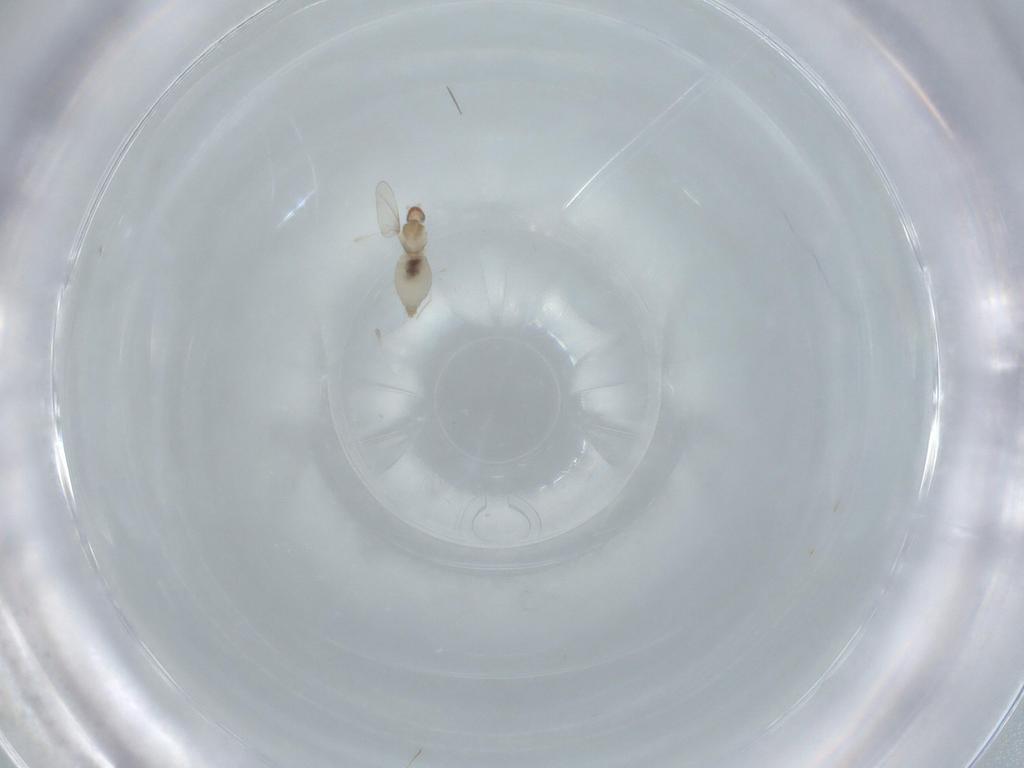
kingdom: Animalia
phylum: Arthropoda
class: Insecta
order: Diptera
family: Cecidomyiidae
